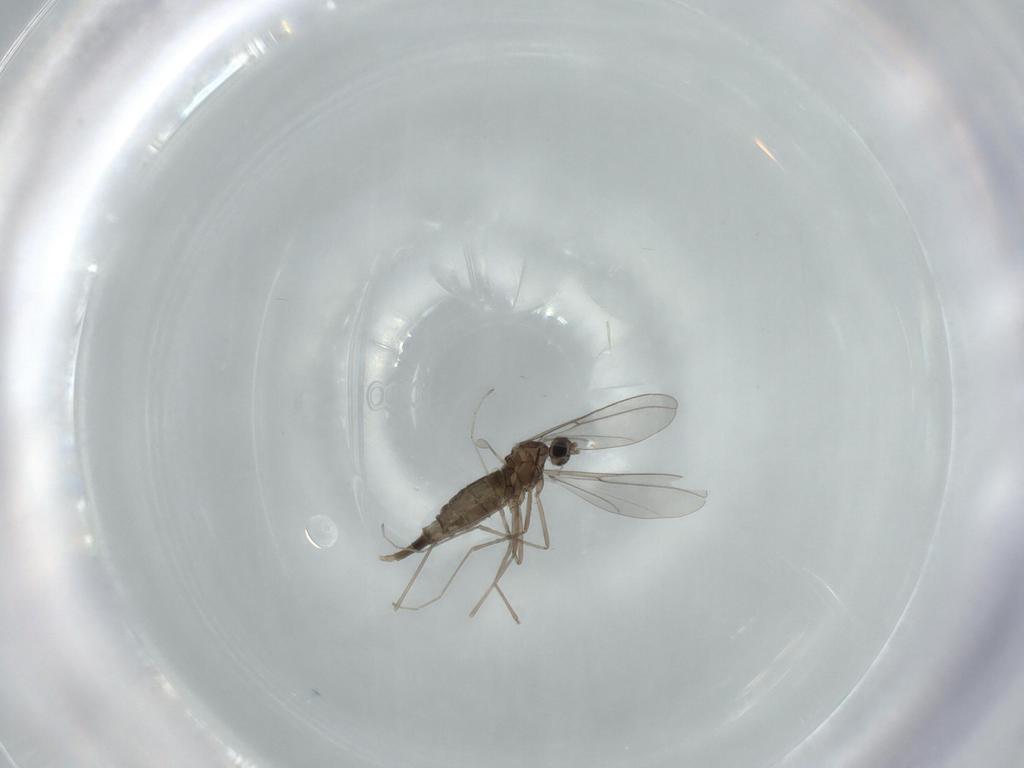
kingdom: Animalia
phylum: Arthropoda
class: Insecta
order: Diptera
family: Cecidomyiidae
